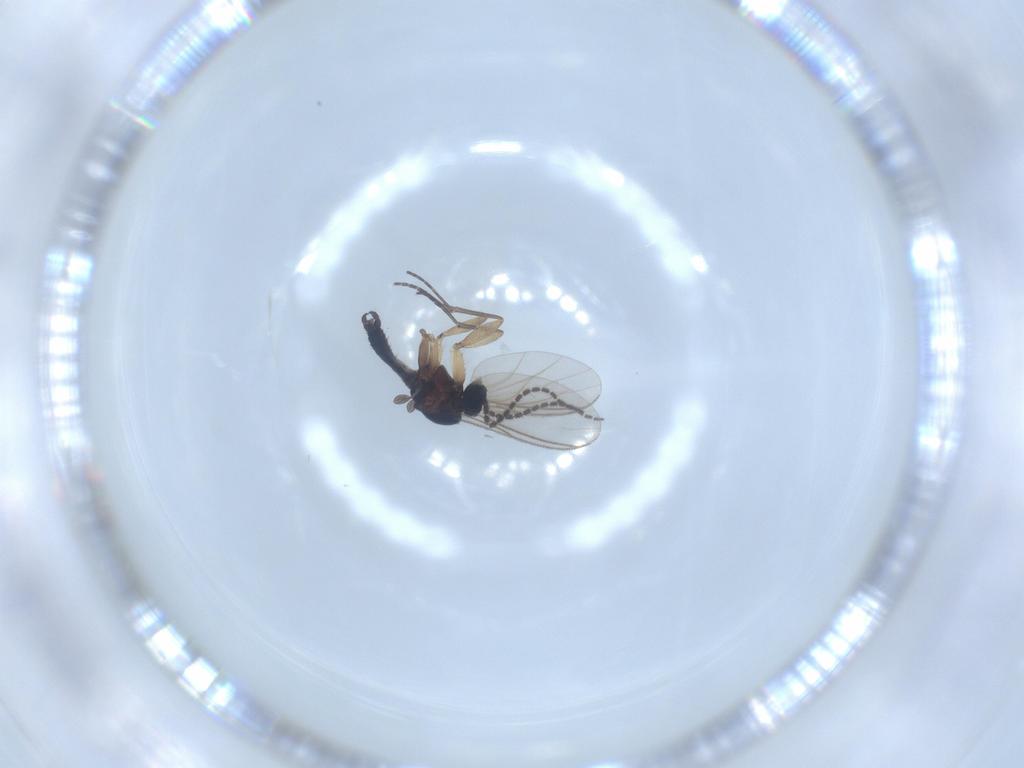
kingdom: Animalia
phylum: Arthropoda
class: Insecta
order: Diptera
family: Sciaridae
